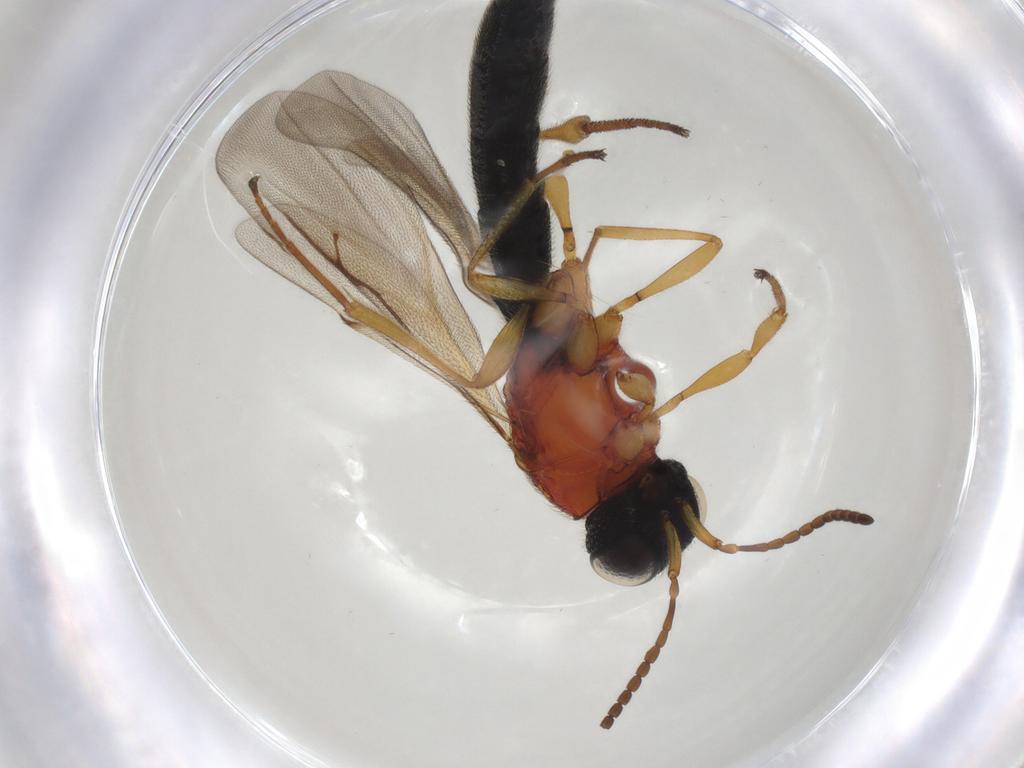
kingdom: Animalia
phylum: Arthropoda
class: Insecta
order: Hymenoptera
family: Scelionidae
